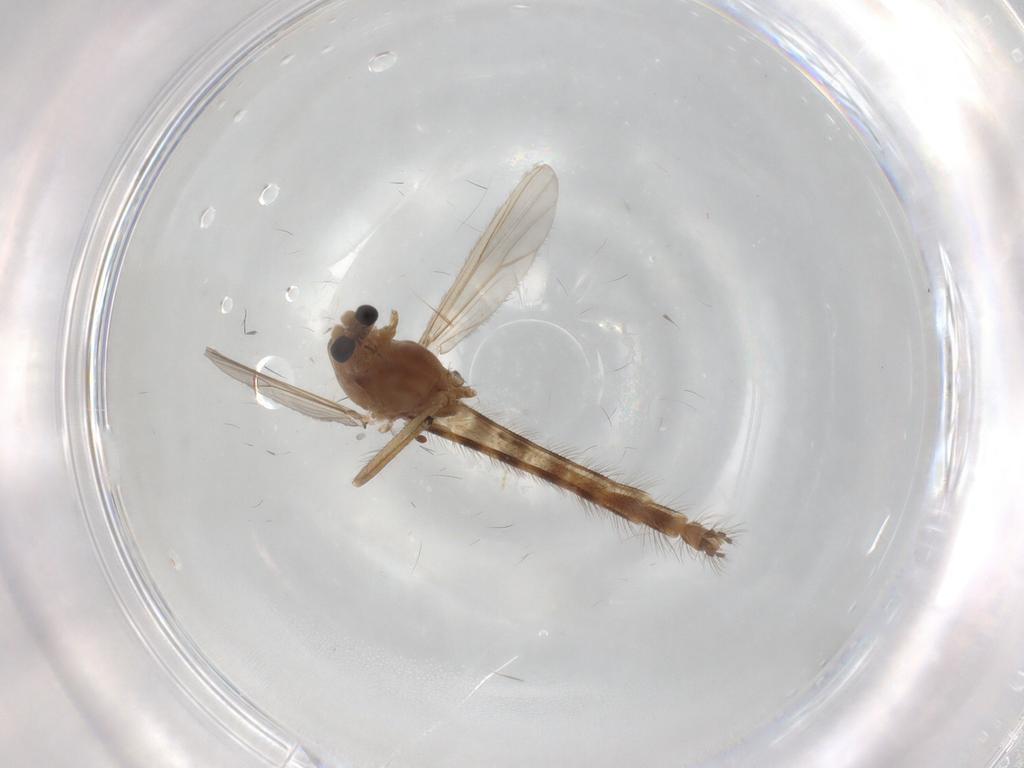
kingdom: Animalia
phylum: Arthropoda
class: Insecta
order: Diptera
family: Psychodidae
